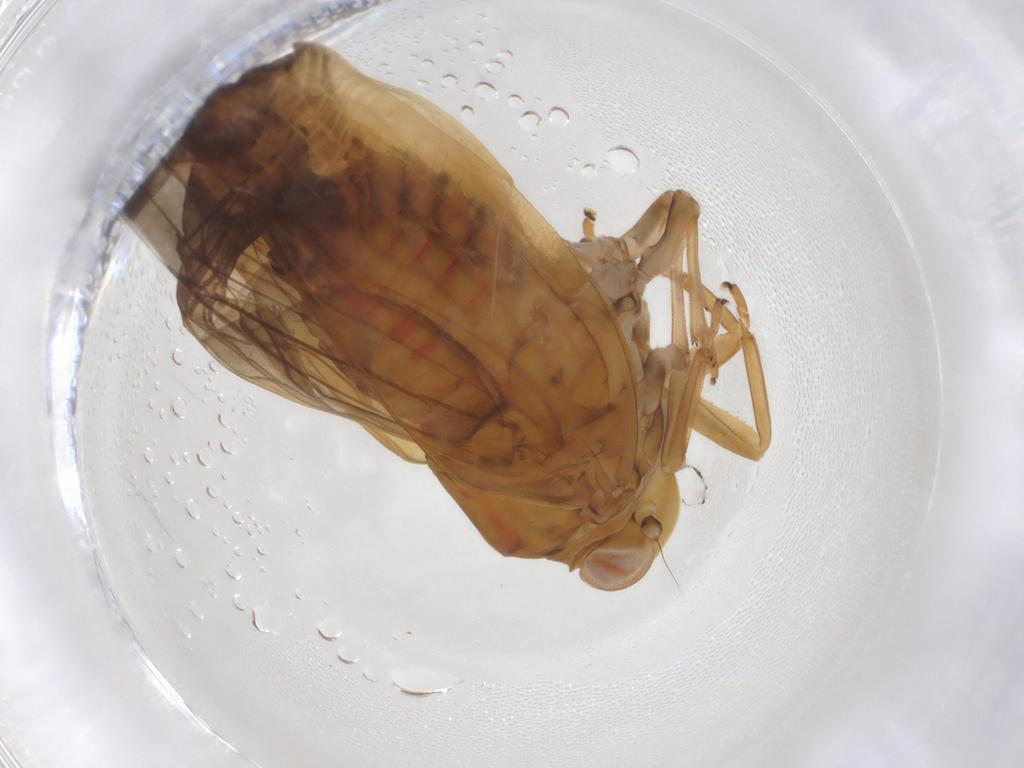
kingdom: Animalia
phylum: Arthropoda
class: Insecta
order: Hemiptera
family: Nogodinidae
